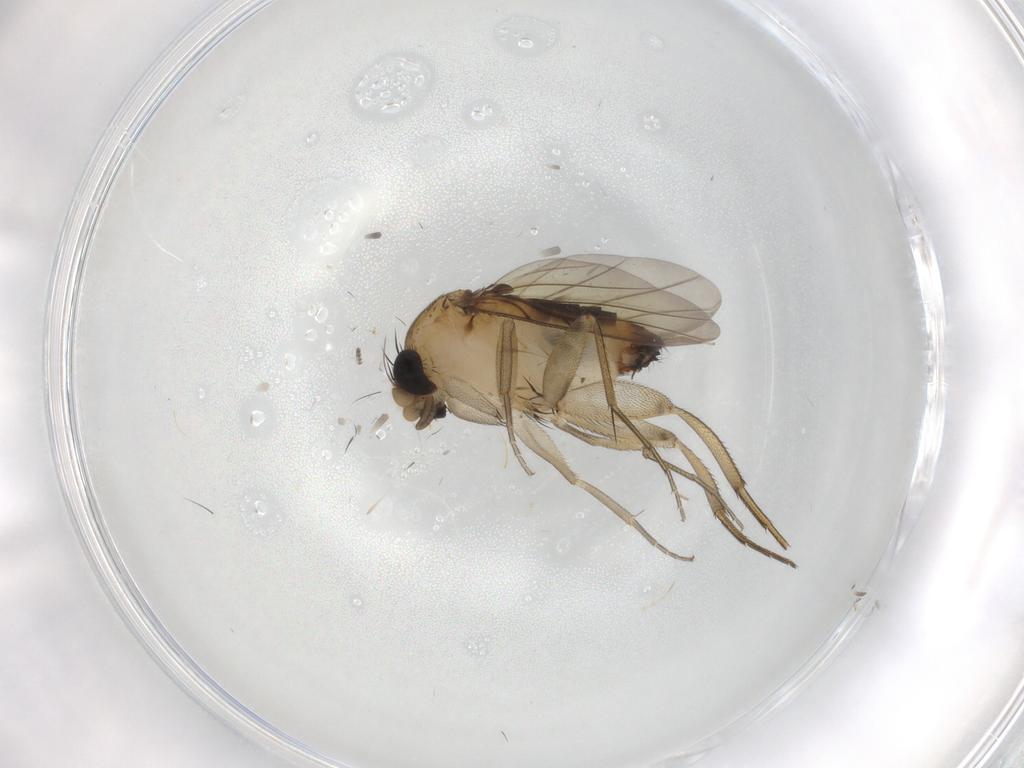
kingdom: Animalia
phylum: Arthropoda
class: Insecta
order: Diptera
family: Phoridae
